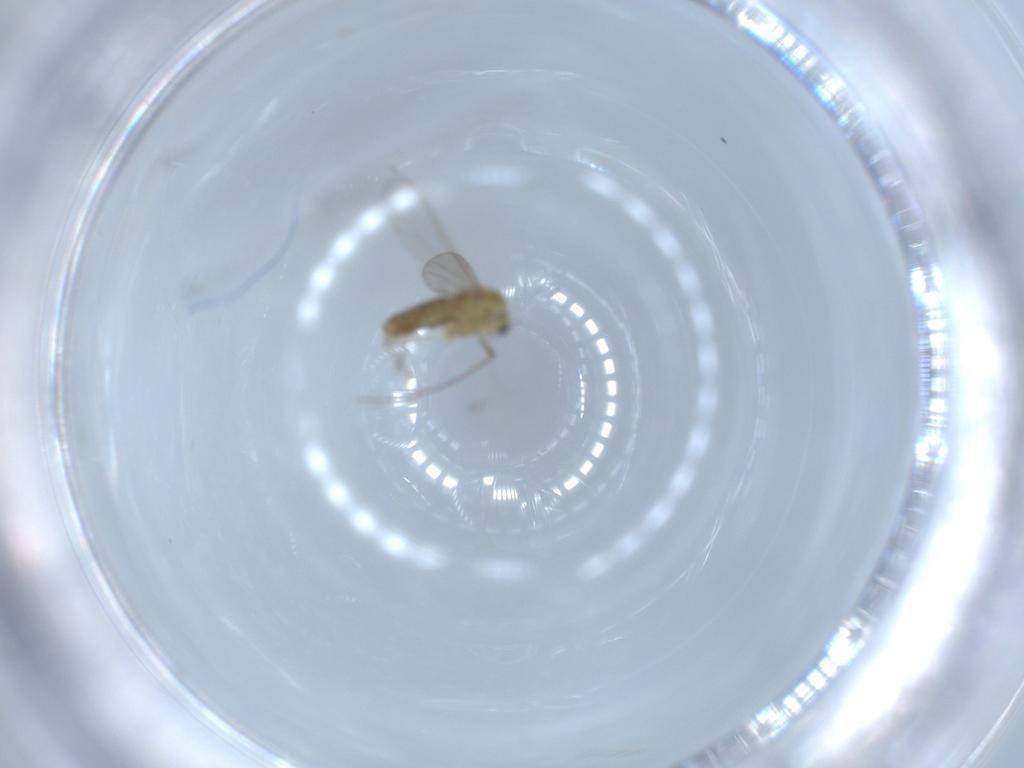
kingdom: Animalia
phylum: Arthropoda
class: Insecta
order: Diptera
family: Chironomidae
